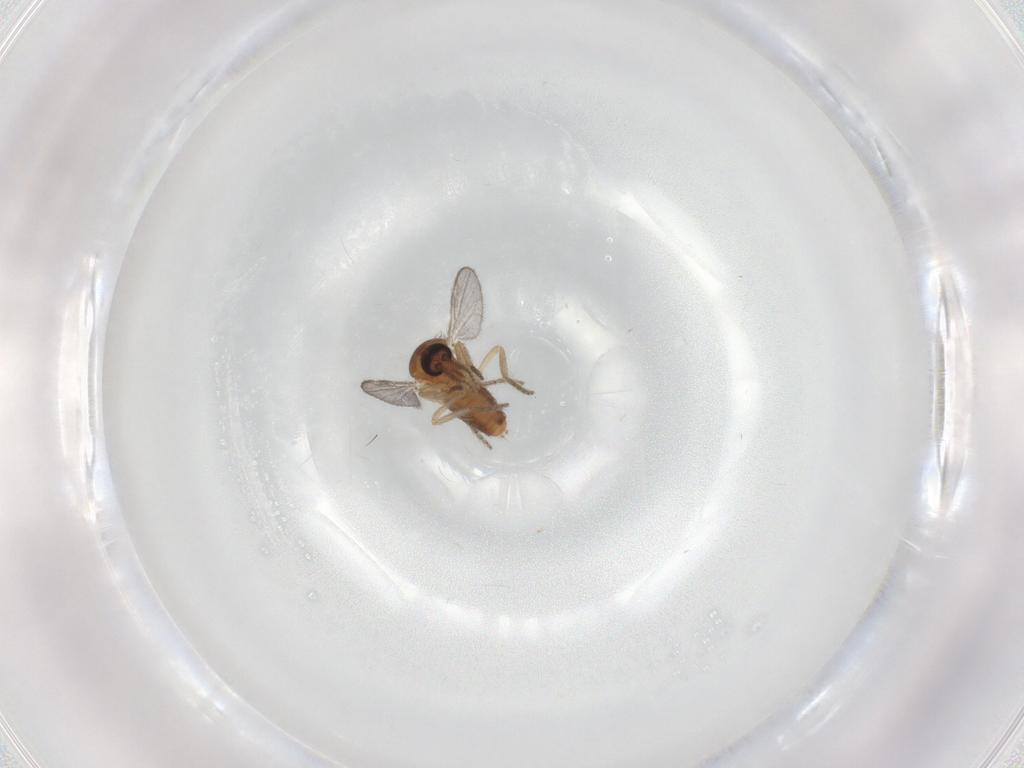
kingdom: Animalia
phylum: Arthropoda
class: Insecta
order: Diptera
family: Ceratopogonidae
